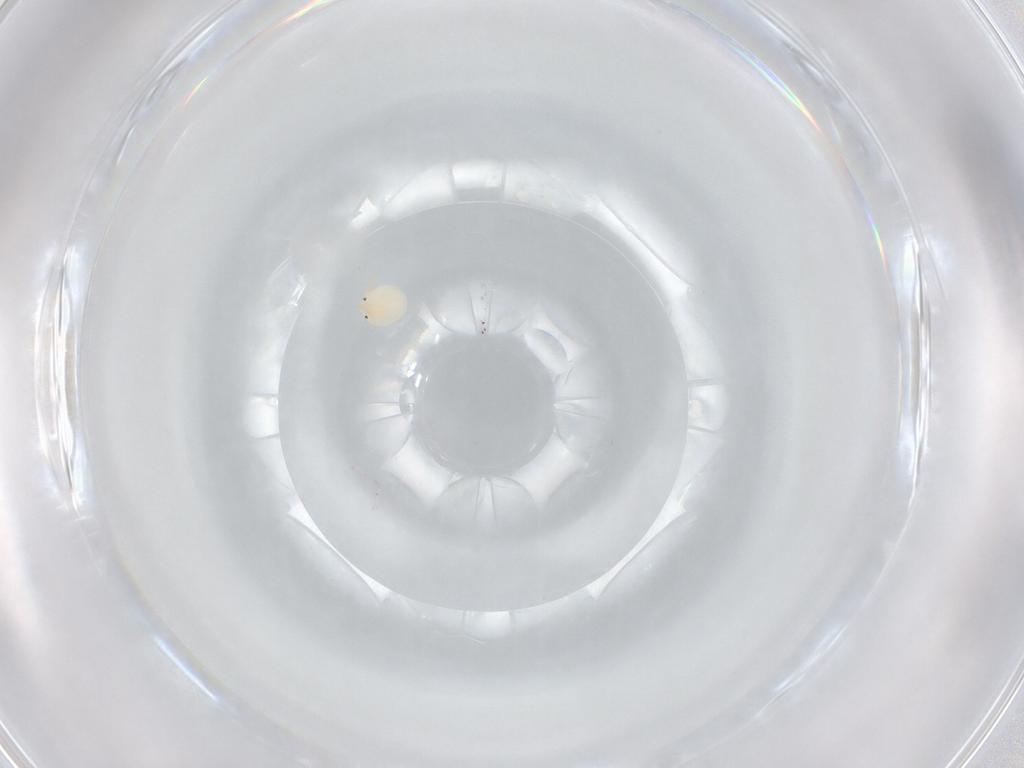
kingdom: Animalia
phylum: Arthropoda
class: Arachnida
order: Trombidiformes
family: Arrenuridae
